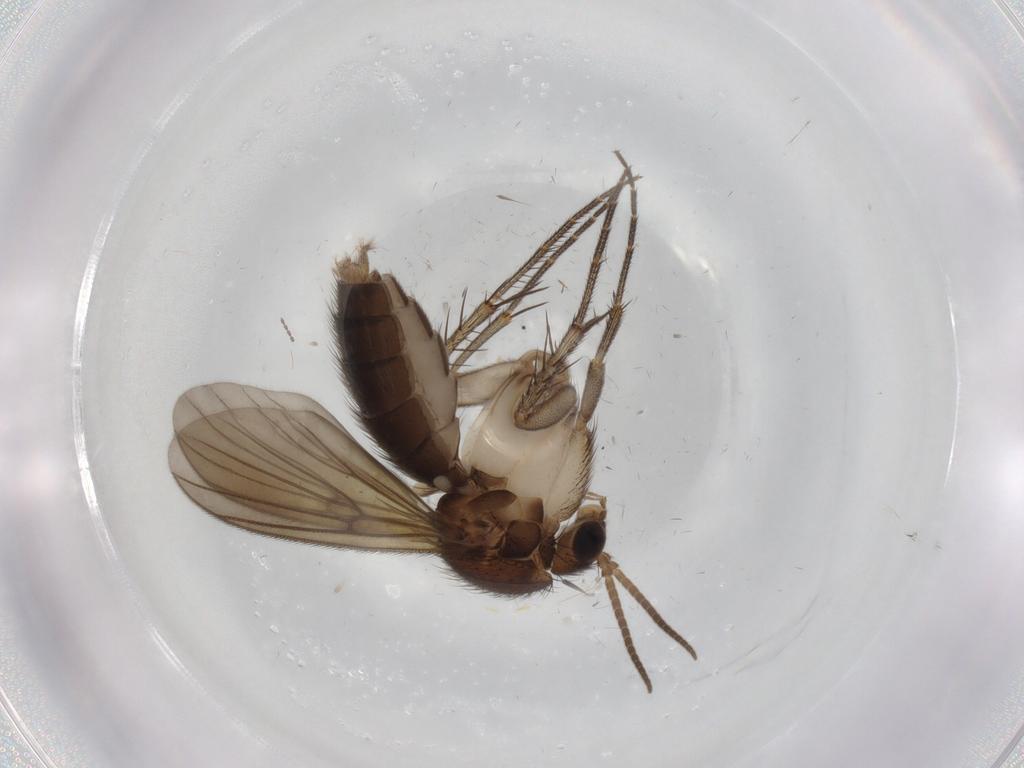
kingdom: Animalia
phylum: Arthropoda
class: Insecta
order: Diptera
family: Mycetophilidae
